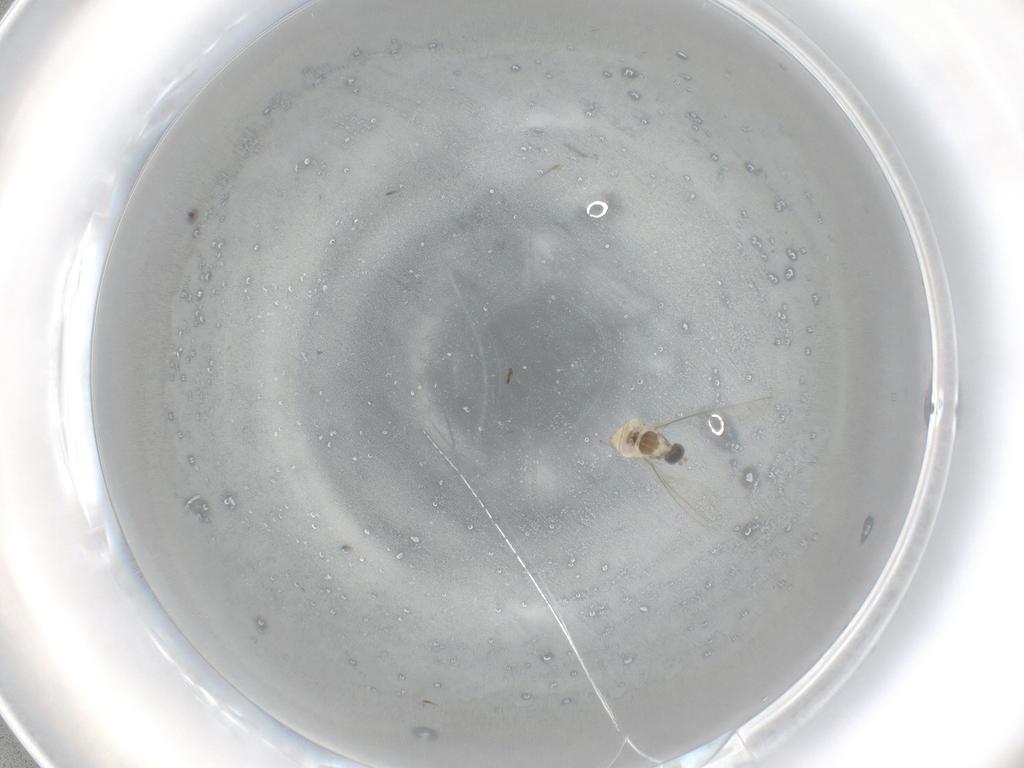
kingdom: Animalia
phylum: Arthropoda
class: Insecta
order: Diptera
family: Cecidomyiidae
